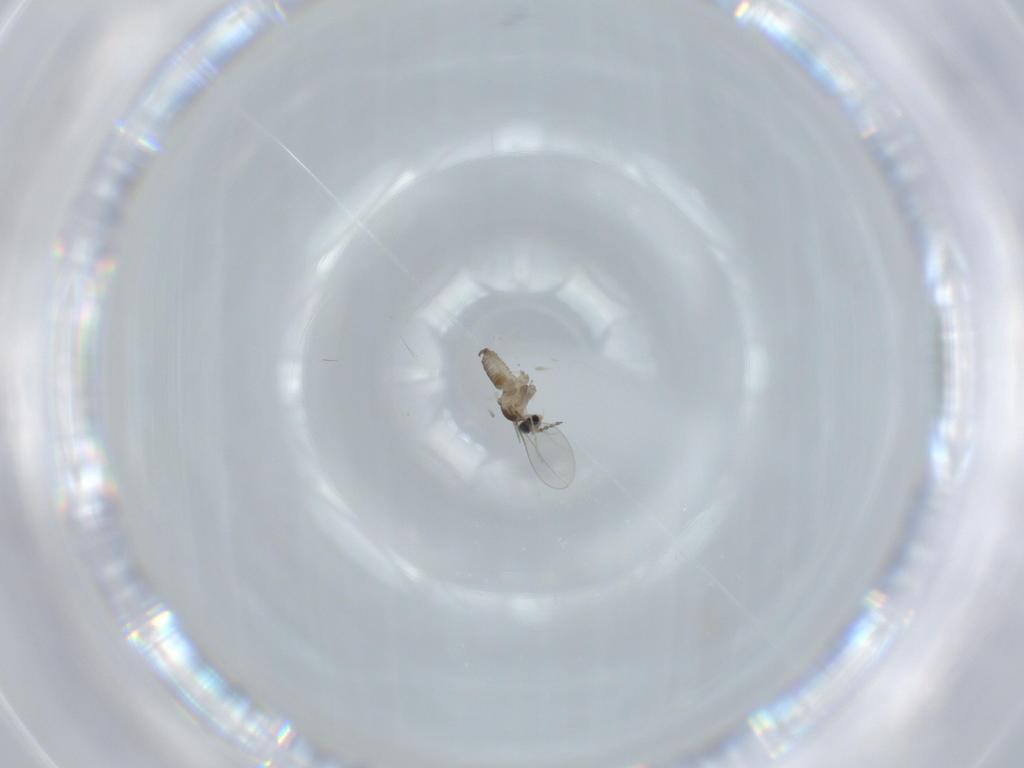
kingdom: Animalia
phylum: Arthropoda
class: Insecta
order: Diptera
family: Cecidomyiidae
